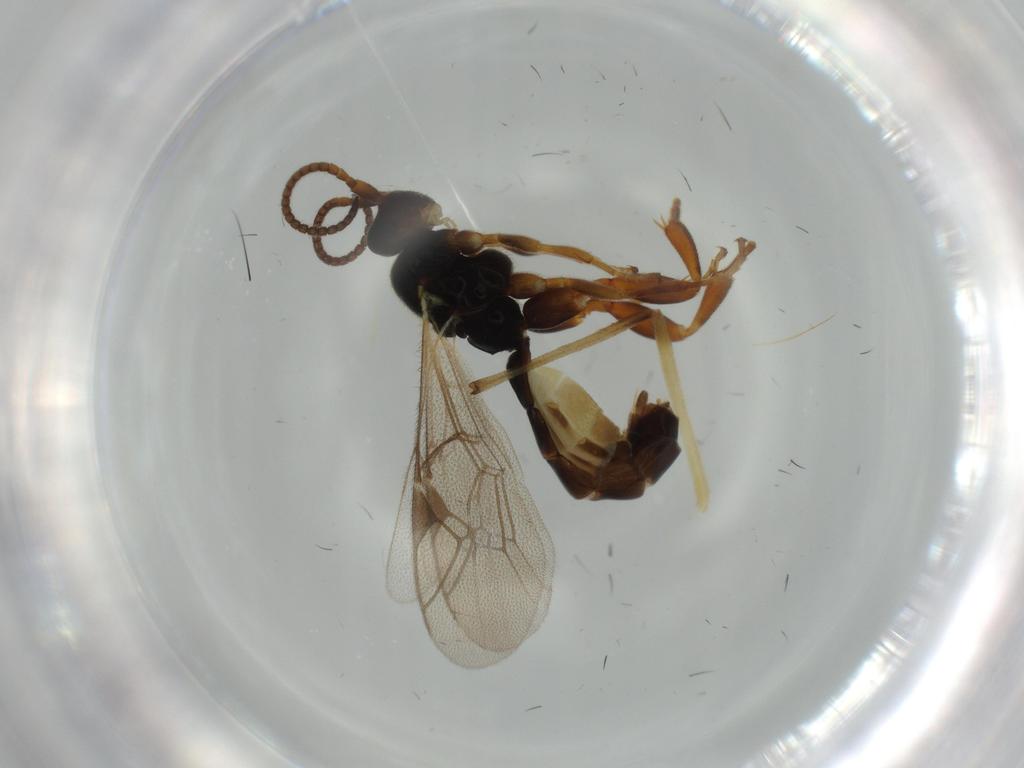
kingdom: Animalia
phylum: Arthropoda
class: Insecta
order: Hymenoptera
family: Ichneumonidae
